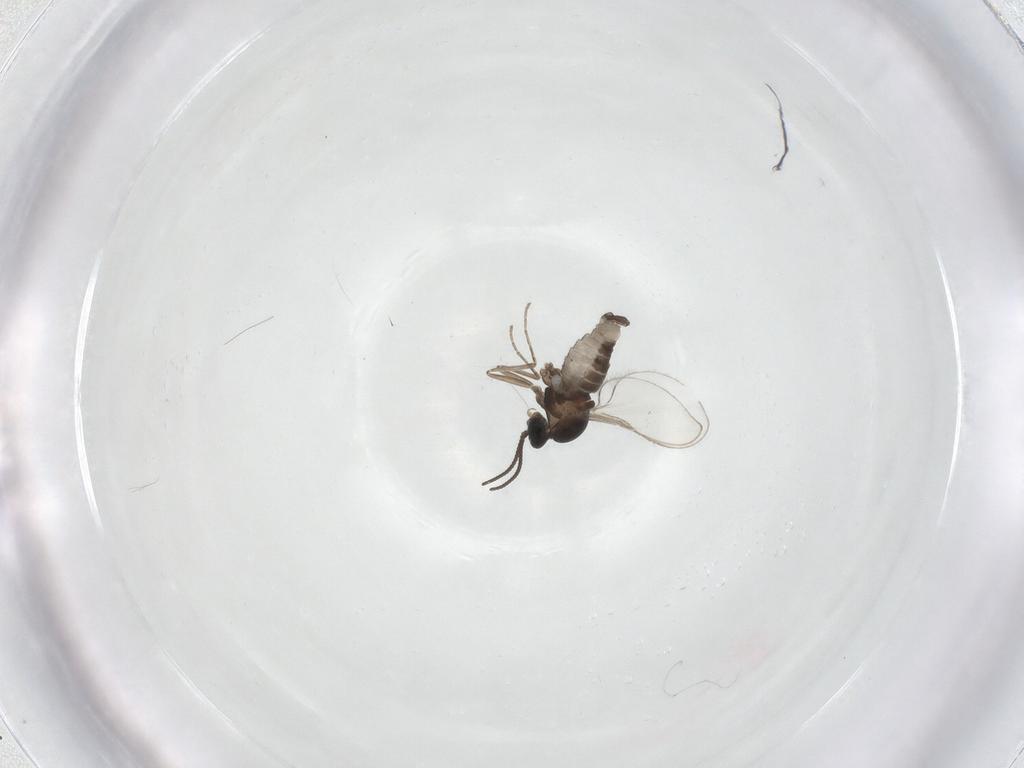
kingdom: Animalia
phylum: Arthropoda
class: Insecta
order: Diptera
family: Cecidomyiidae
